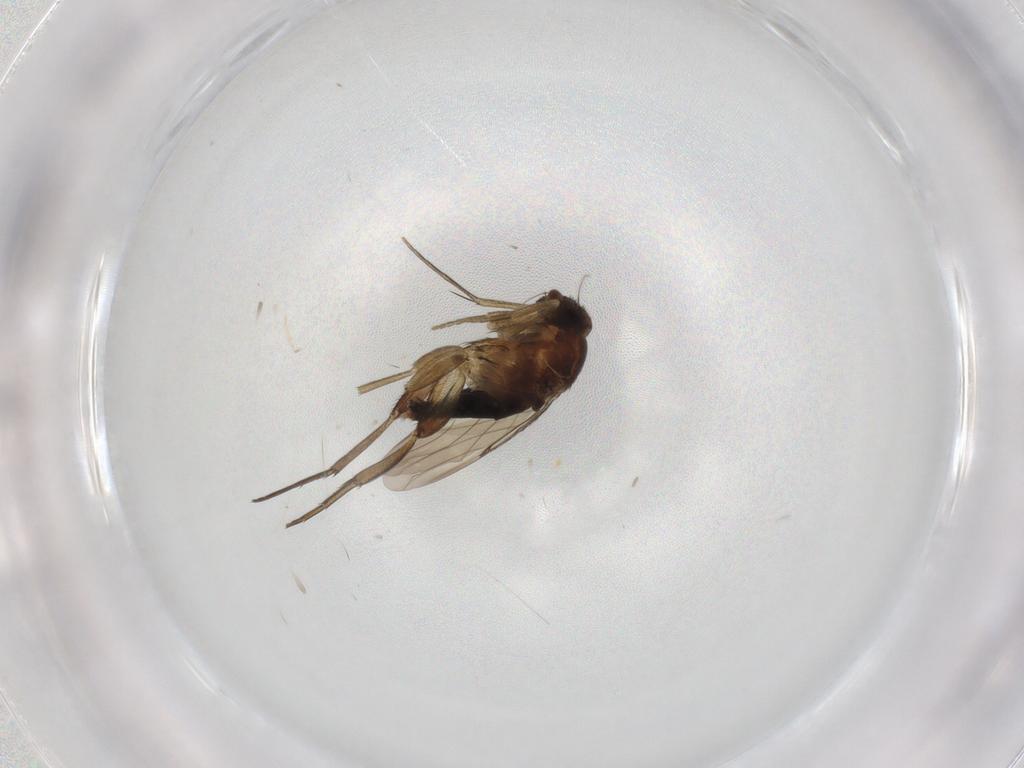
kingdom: Animalia
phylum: Arthropoda
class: Insecta
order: Diptera
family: Phoridae
